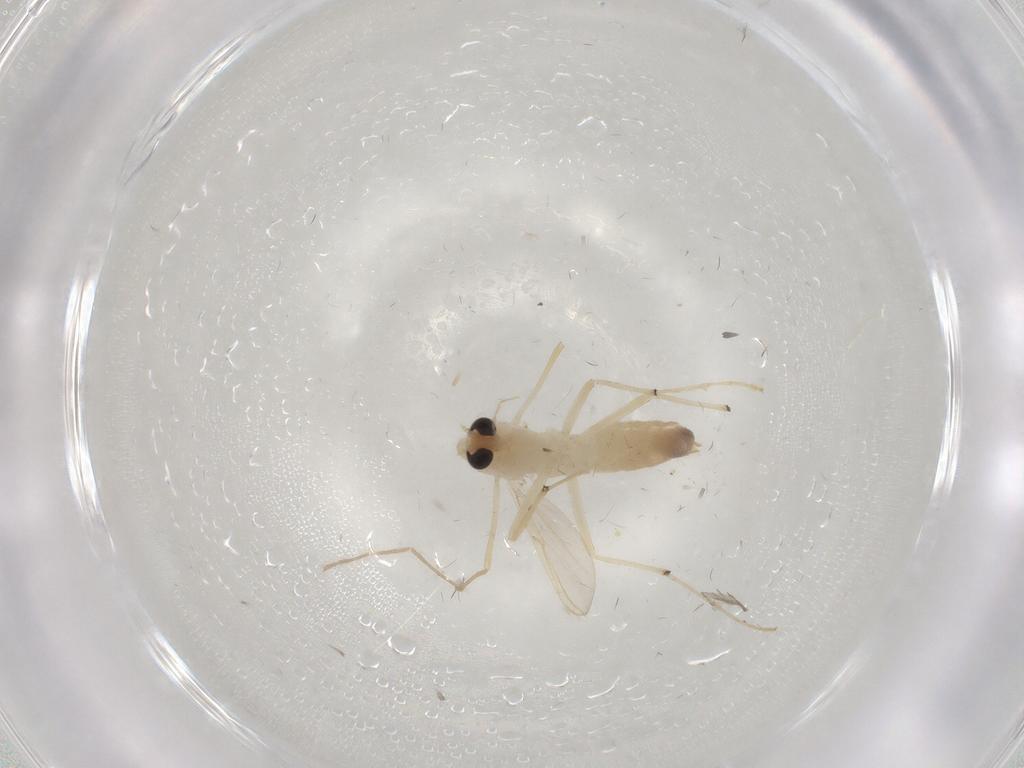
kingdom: Animalia
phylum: Arthropoda
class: Insecta
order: Diptera
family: Chironomidae
